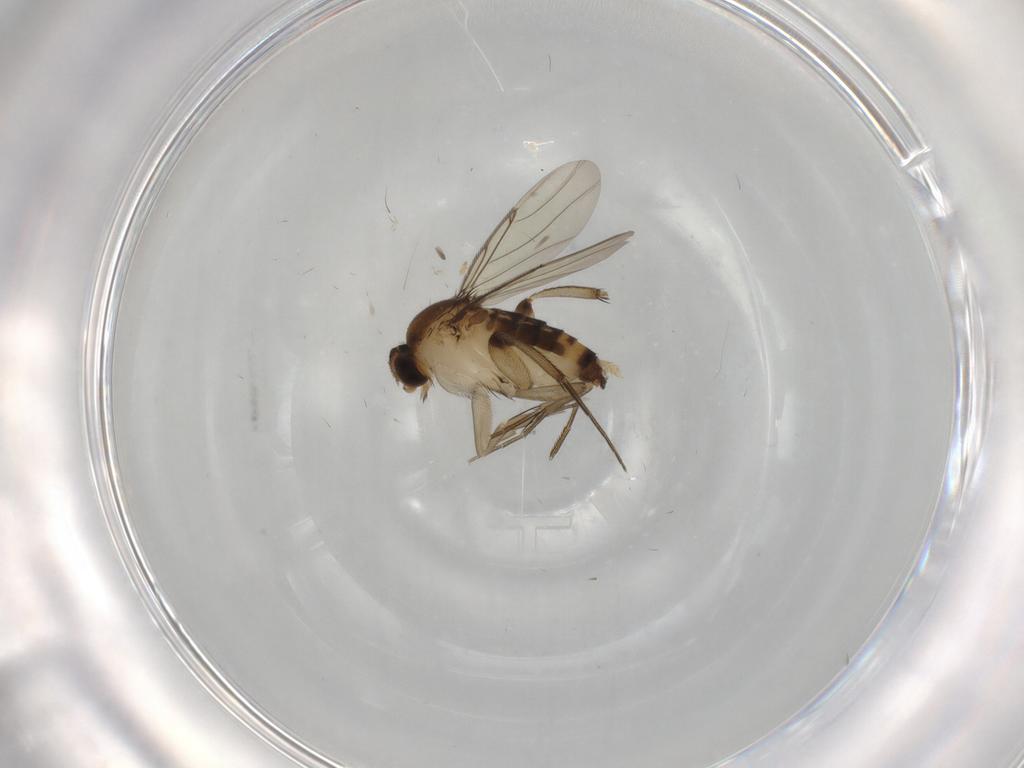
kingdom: Animalia
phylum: Arthropoda
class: Insecta
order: Diptera
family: Phoridae
